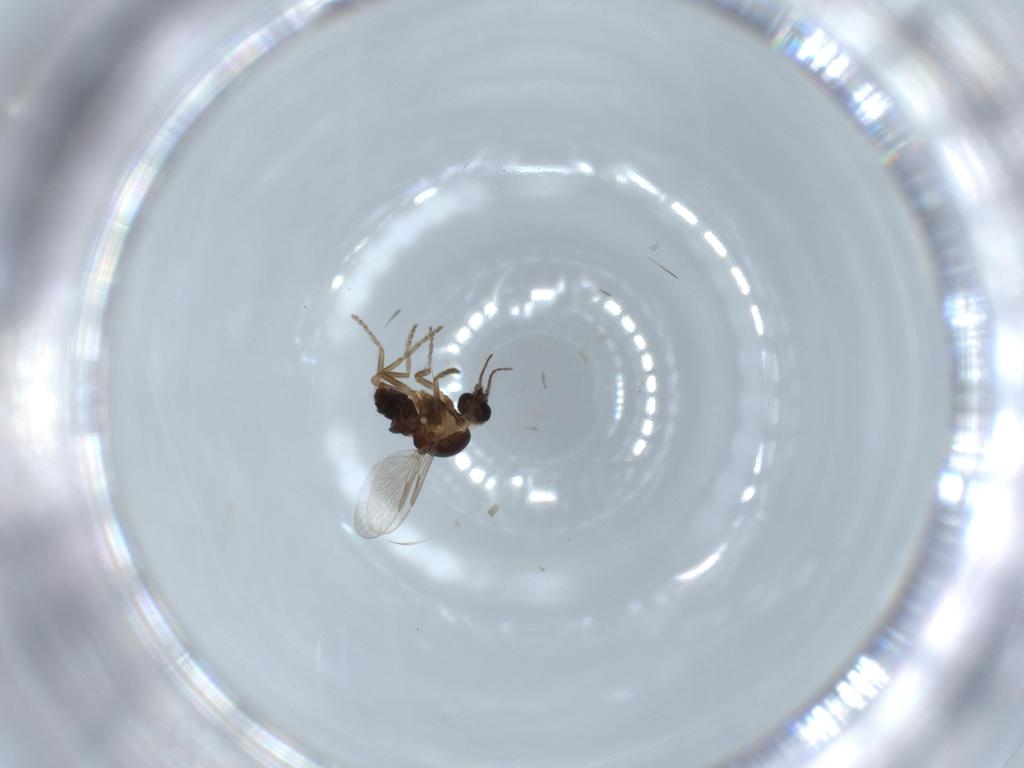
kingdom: Animalia
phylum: Arthropoda
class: Insecta
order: Diptera
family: Ceratopogonidae
